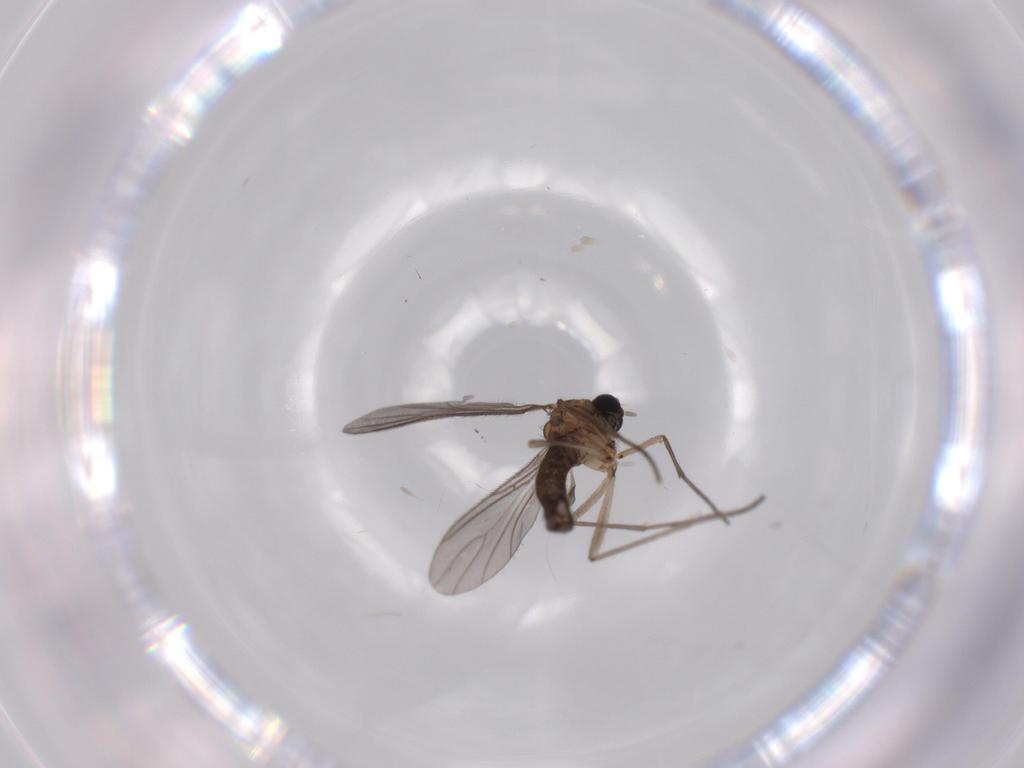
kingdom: Animalia
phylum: Arthropoda
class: Insecta
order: Diptera
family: Sciaridae
